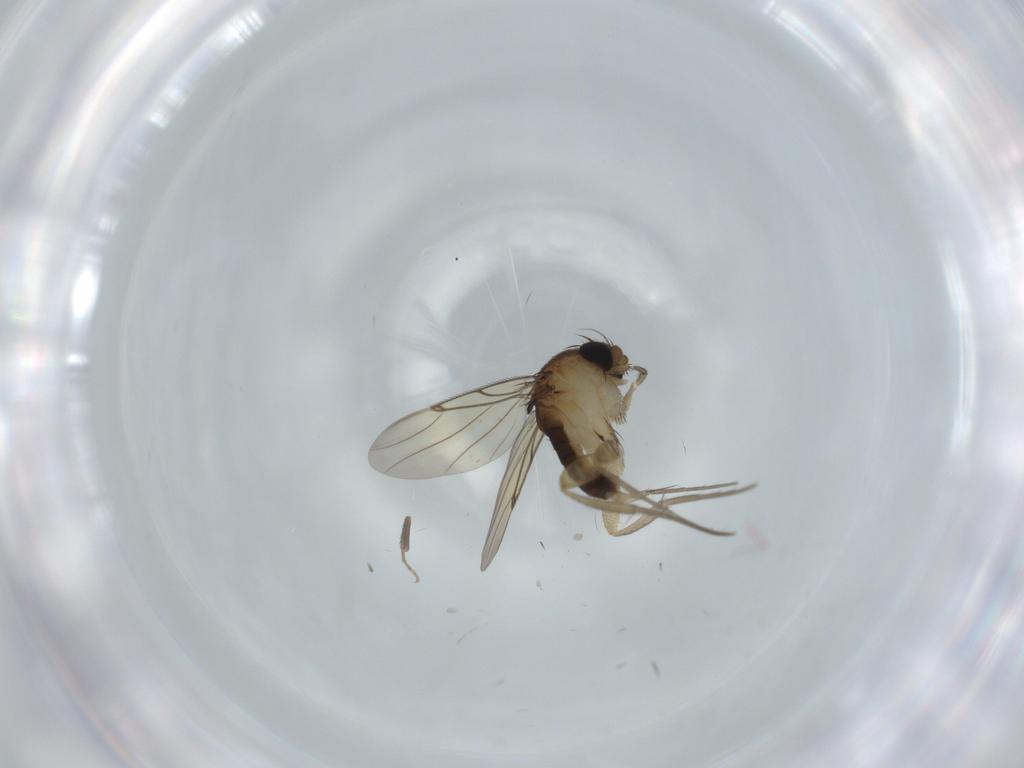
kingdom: Animalia
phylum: Arthropoda
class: Insecta
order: Diptera
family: Sphaeroceridae
